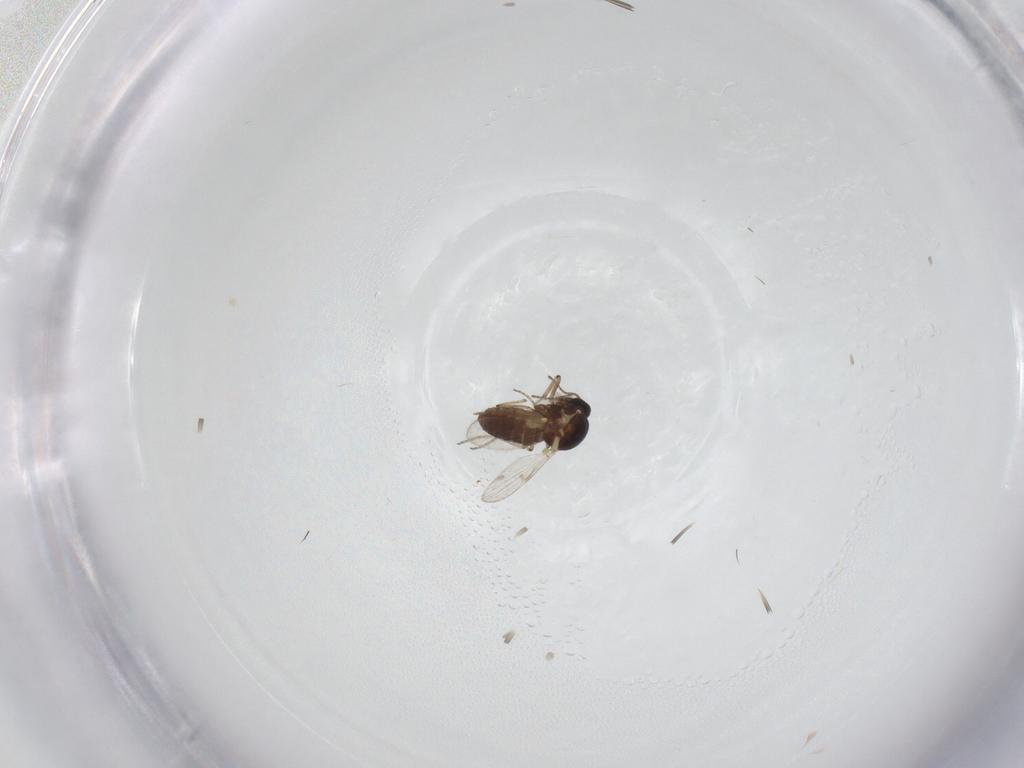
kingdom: Animalia
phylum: Arthropoda
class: Insecta
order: Diptera
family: Ceratopogonidae
